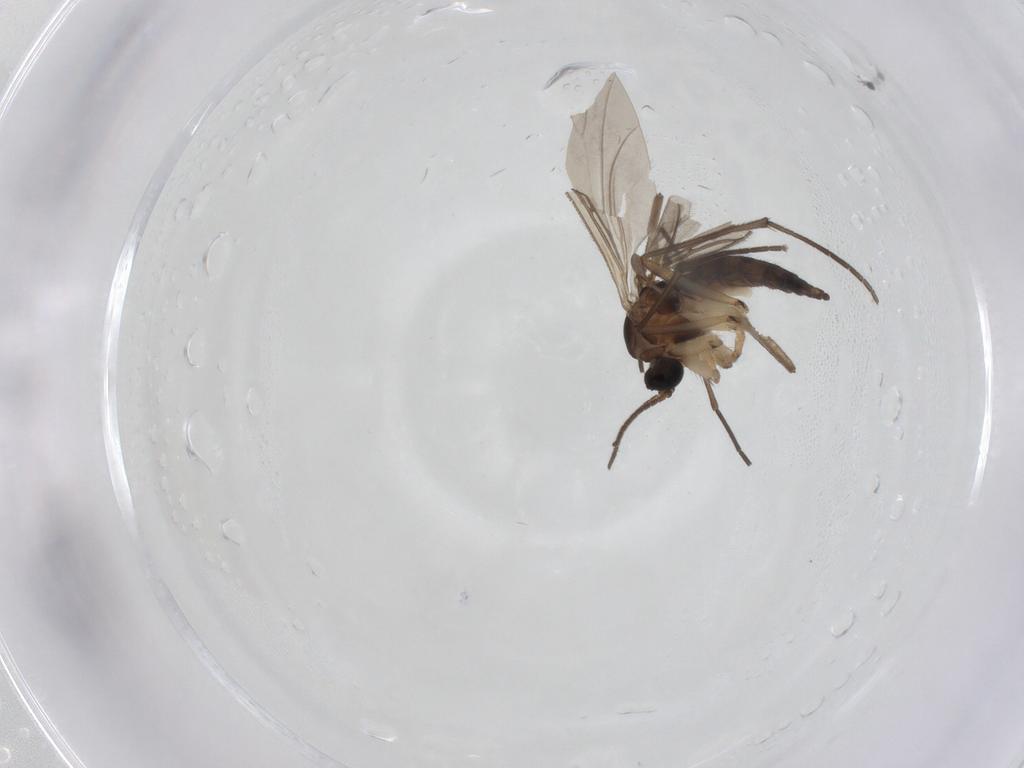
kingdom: Animalia
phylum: Arthropoda
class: Insecta
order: Diptera
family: Sciaridae
